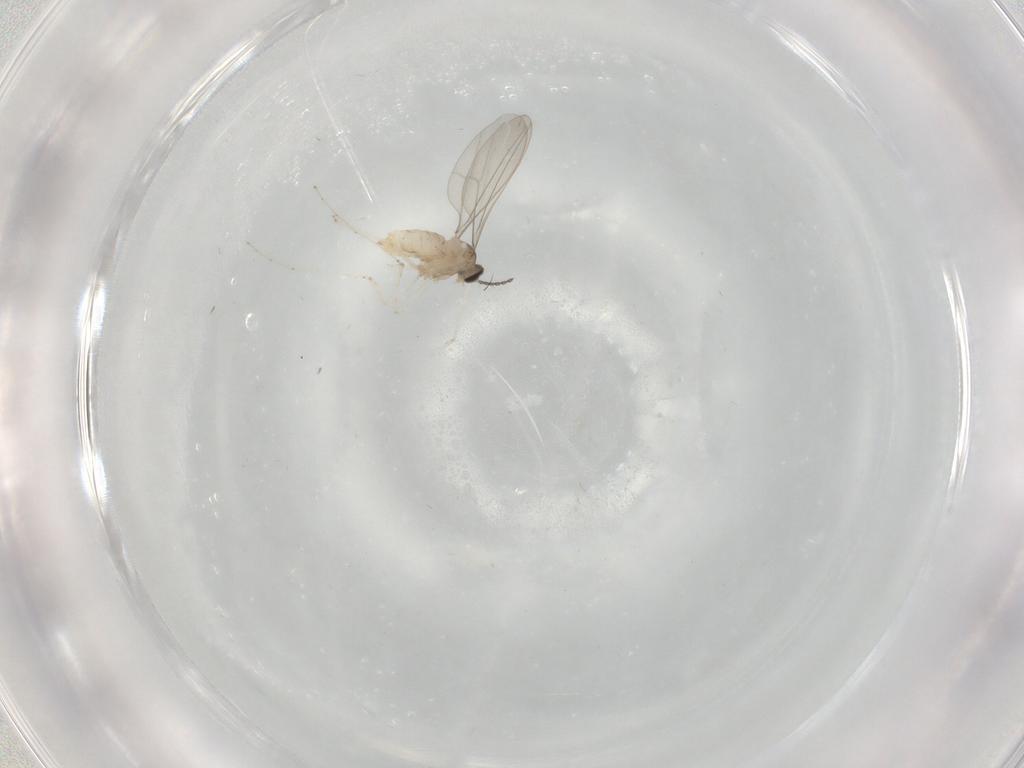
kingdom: Animalia
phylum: Arthropoda
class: Insecta
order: Diptera
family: Cecidomyiidae
